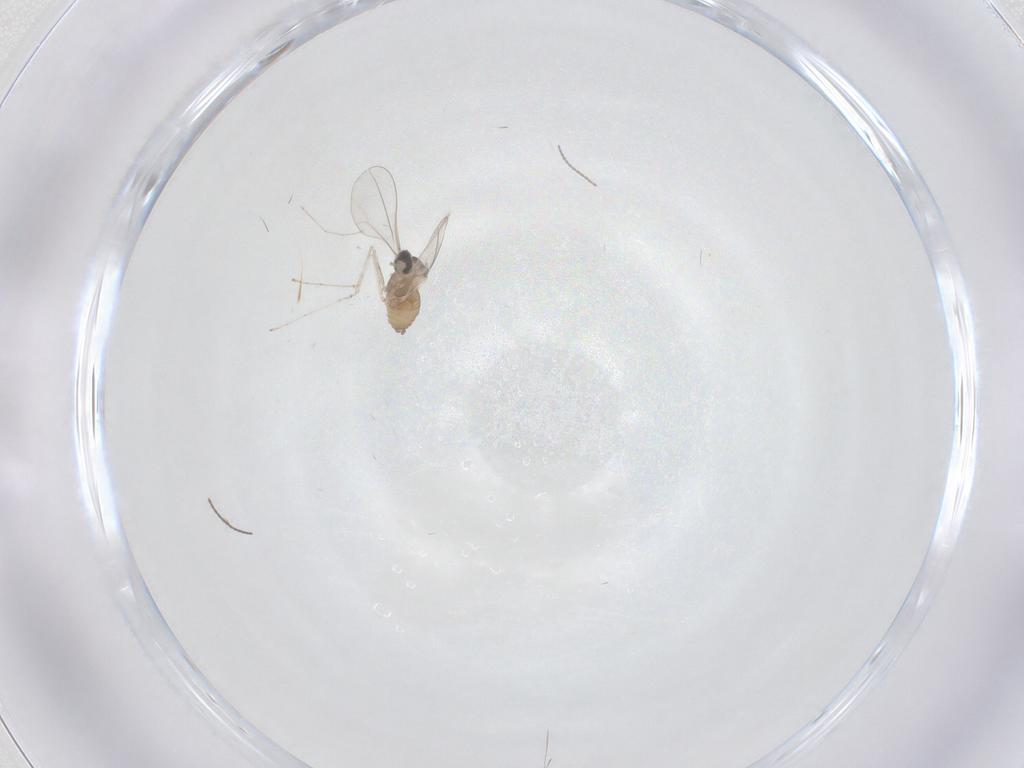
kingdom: Animalia
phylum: Arthropoda
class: Insecta
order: Diptera
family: Cecidomyiidae
